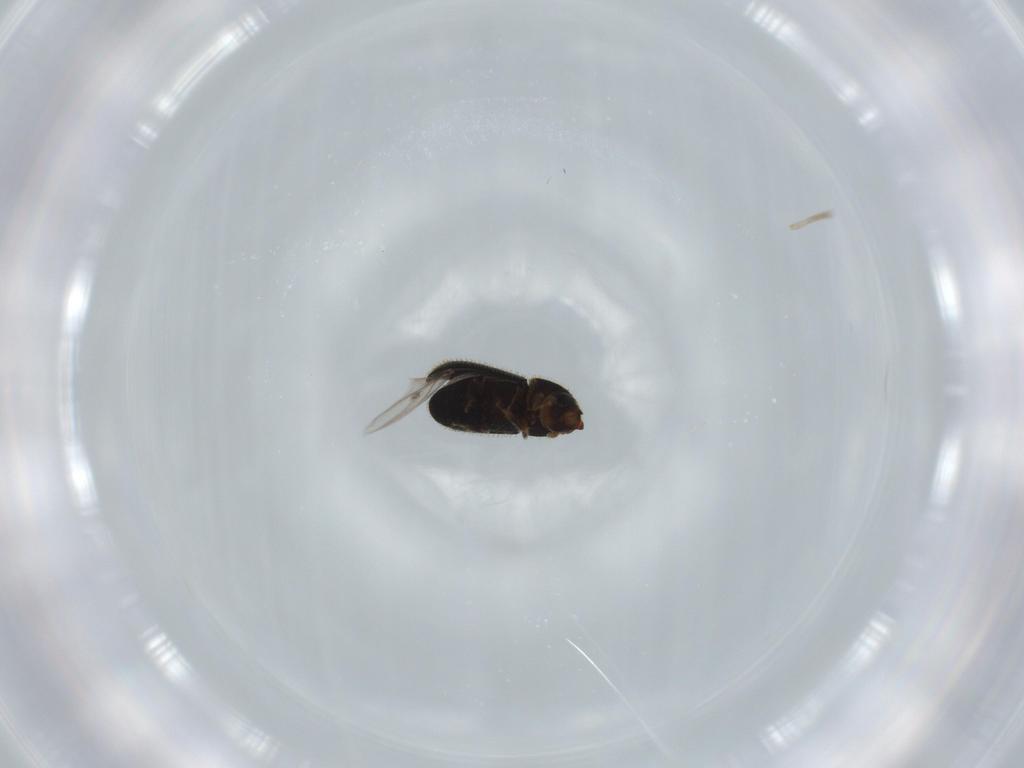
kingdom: Animalia
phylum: Arthropoda
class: Insecta
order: Coleoptera
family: Curculionidae
